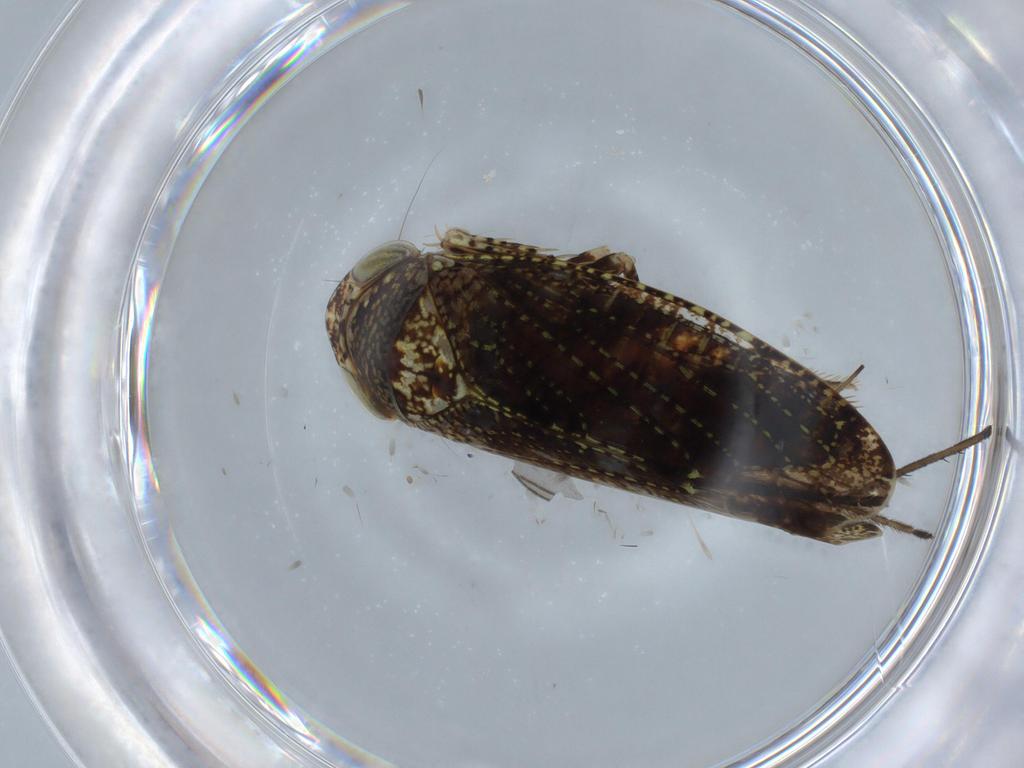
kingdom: Animalia
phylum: Arthropoda
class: Insecta
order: Hemiptera
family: Cicadellidae
